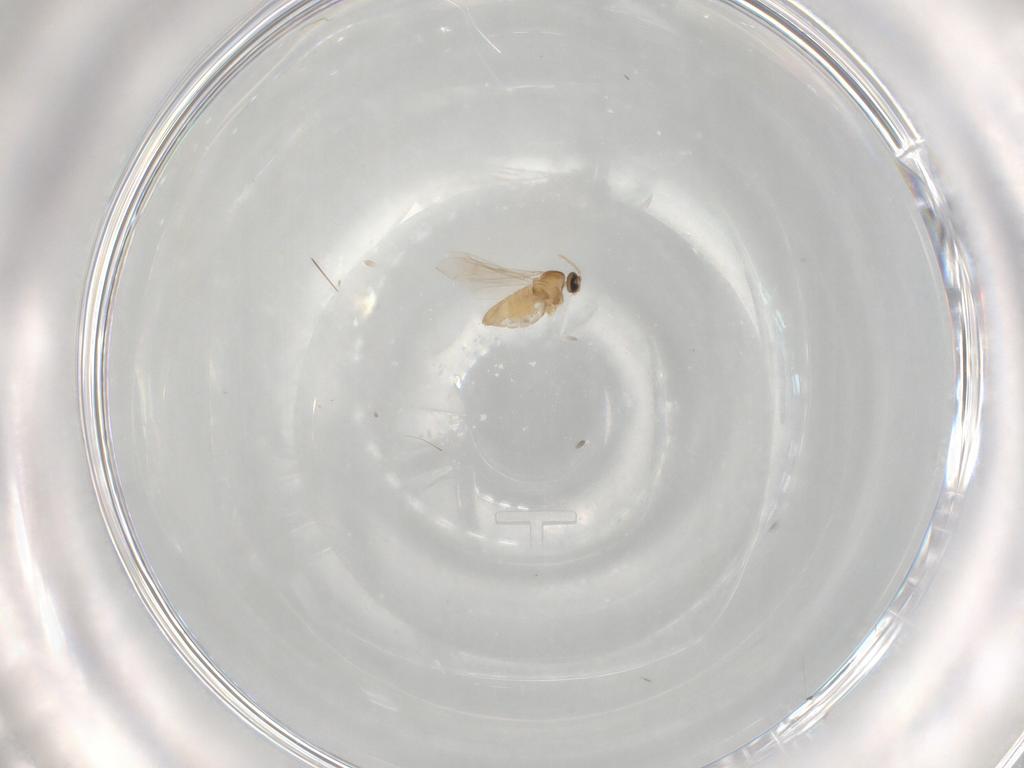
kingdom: Animalia
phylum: Arthropoda
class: Insecta
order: Diptera
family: Cecidomyiidae
